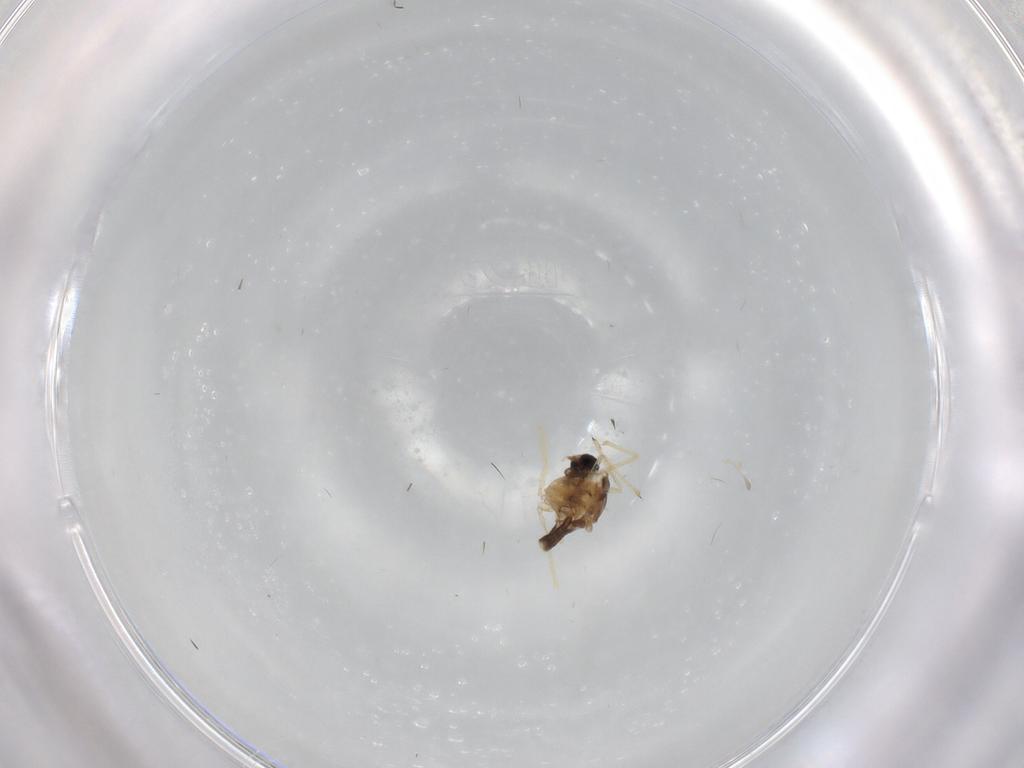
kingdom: Animalia
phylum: Arthropoda
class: Insecta
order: Diptera
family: Chironomidae
